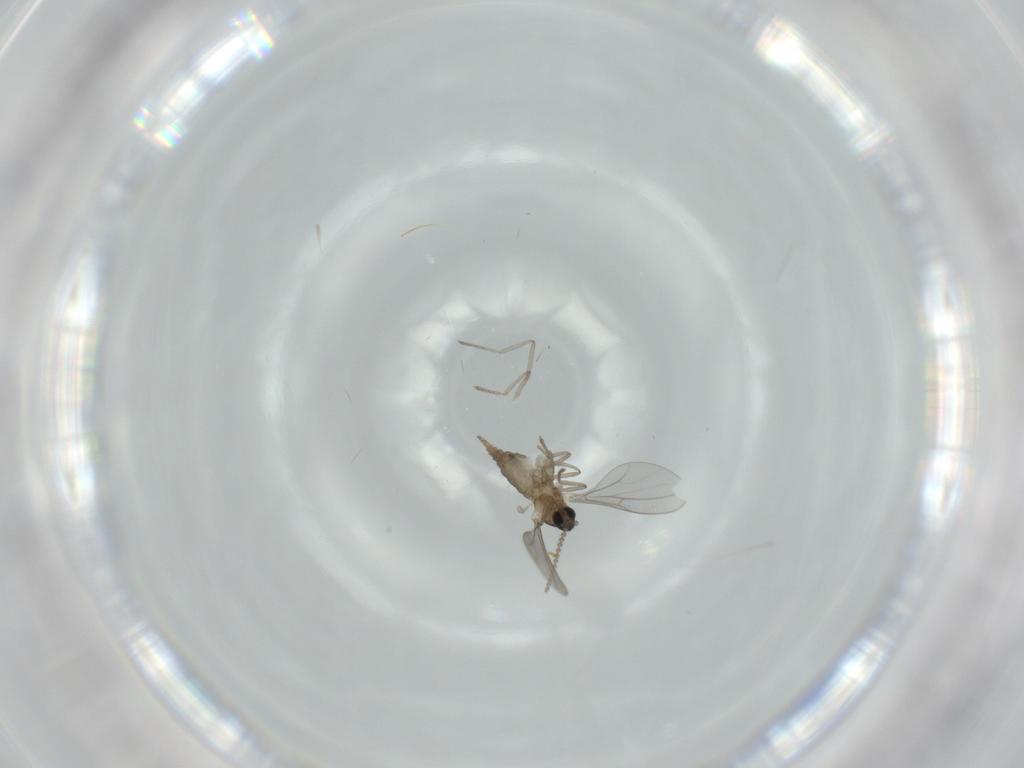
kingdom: Animalia
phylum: Arthropoda
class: Insecta
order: Diptera
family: Cecidomyiidae
